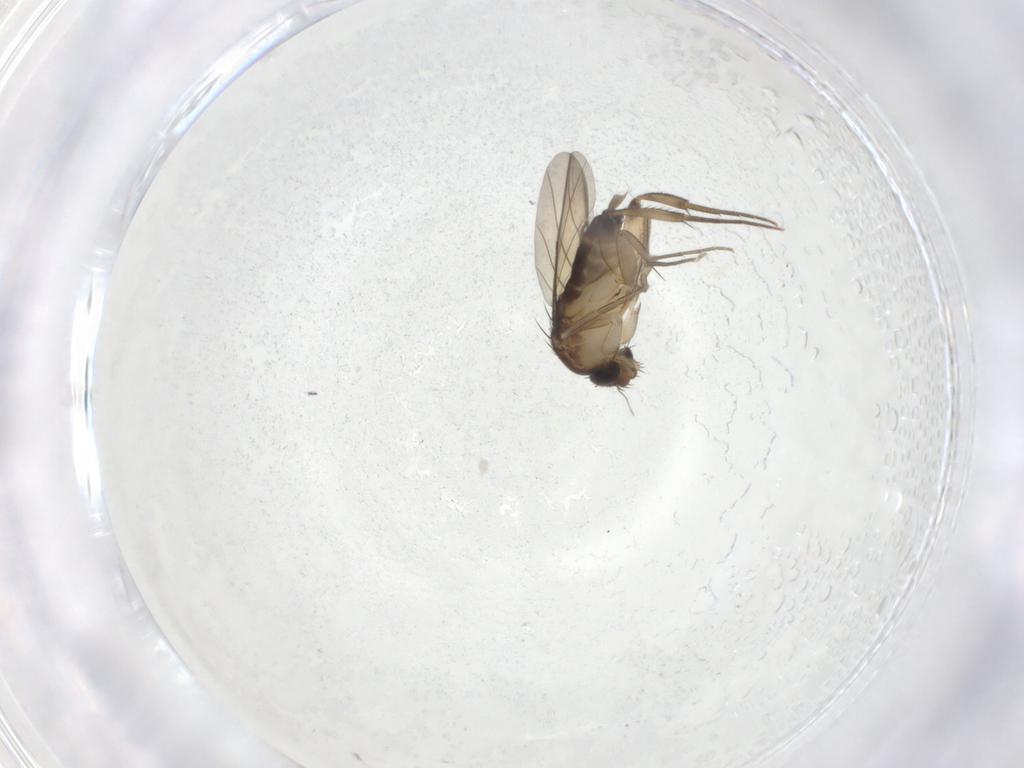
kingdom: Animalia
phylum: Arthropoda
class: Insecta
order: Diptera
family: Phoridae
